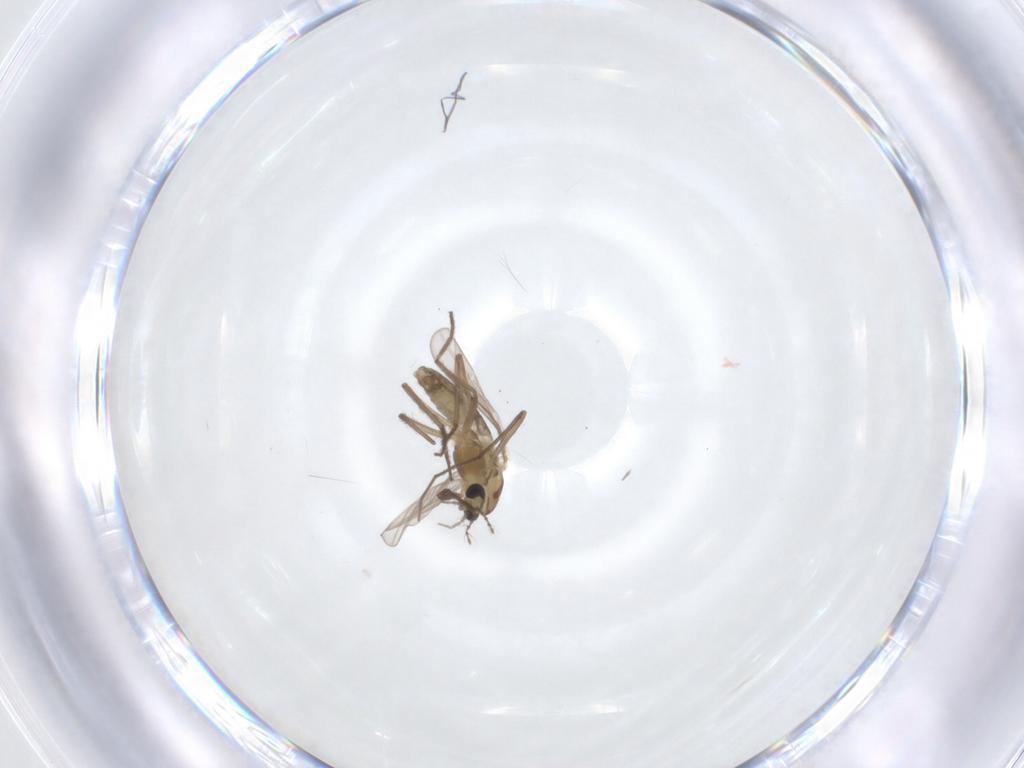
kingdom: Animalia
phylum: Arthropoda
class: Insecta
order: Diptera
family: Chironomidae
